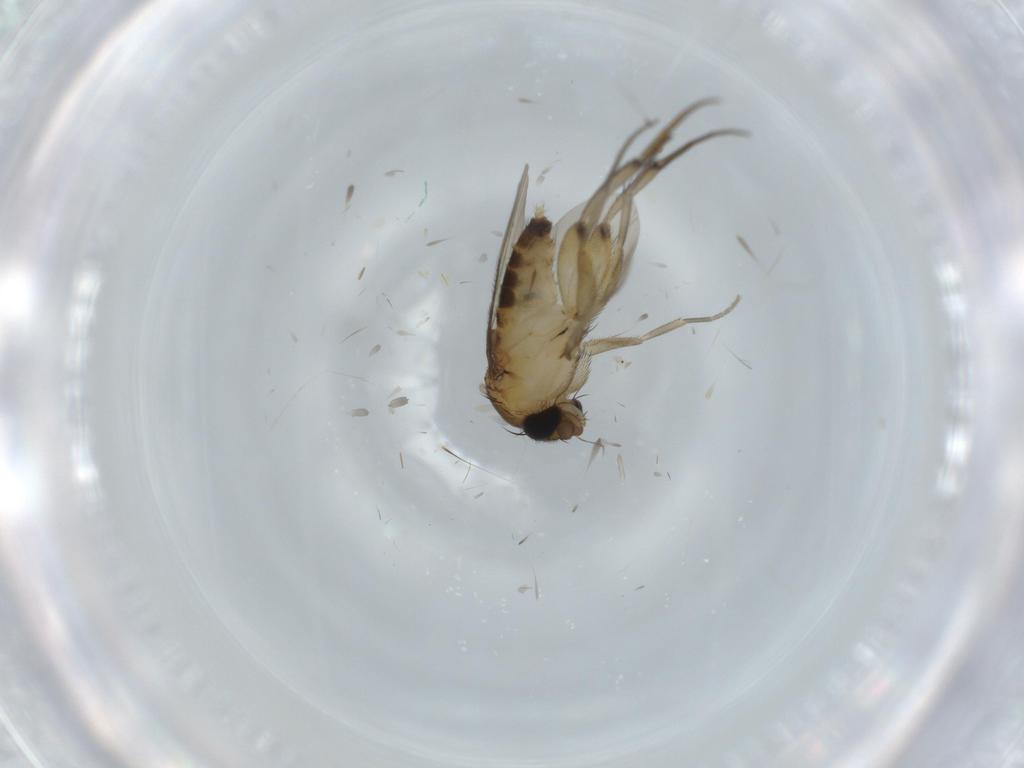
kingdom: Animalia
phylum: Arthropoda
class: Insecta
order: Diptera
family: Phoridae
